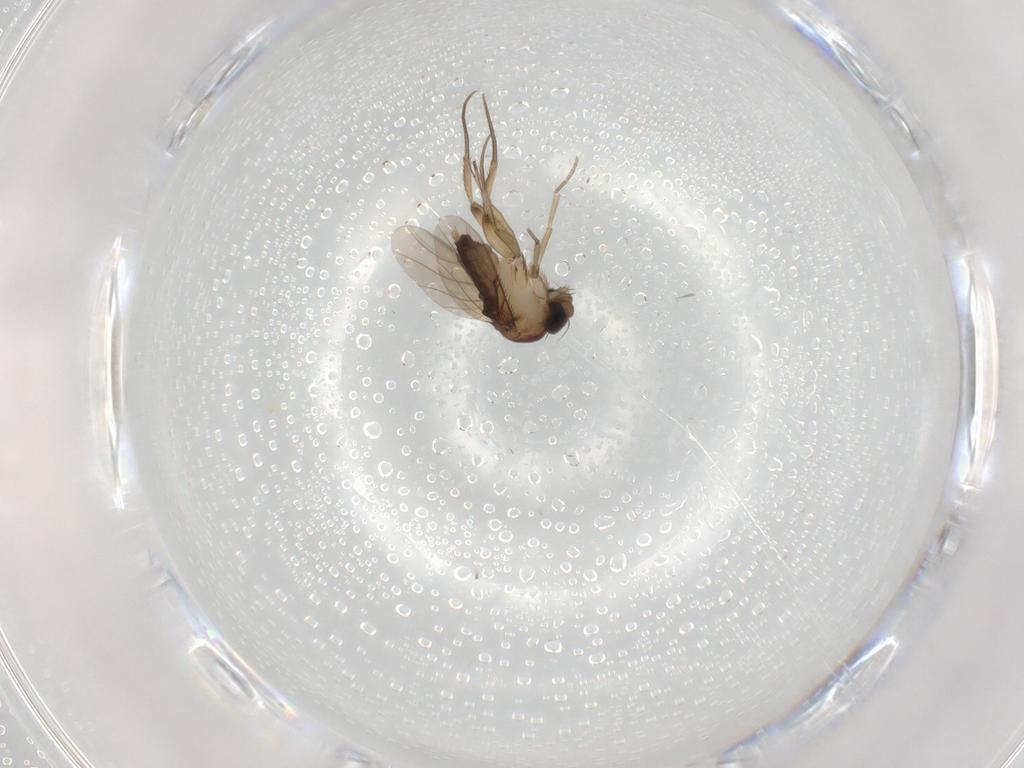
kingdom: Animalia
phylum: Arthropoda
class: Insecta
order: Diptera
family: Phoridae
